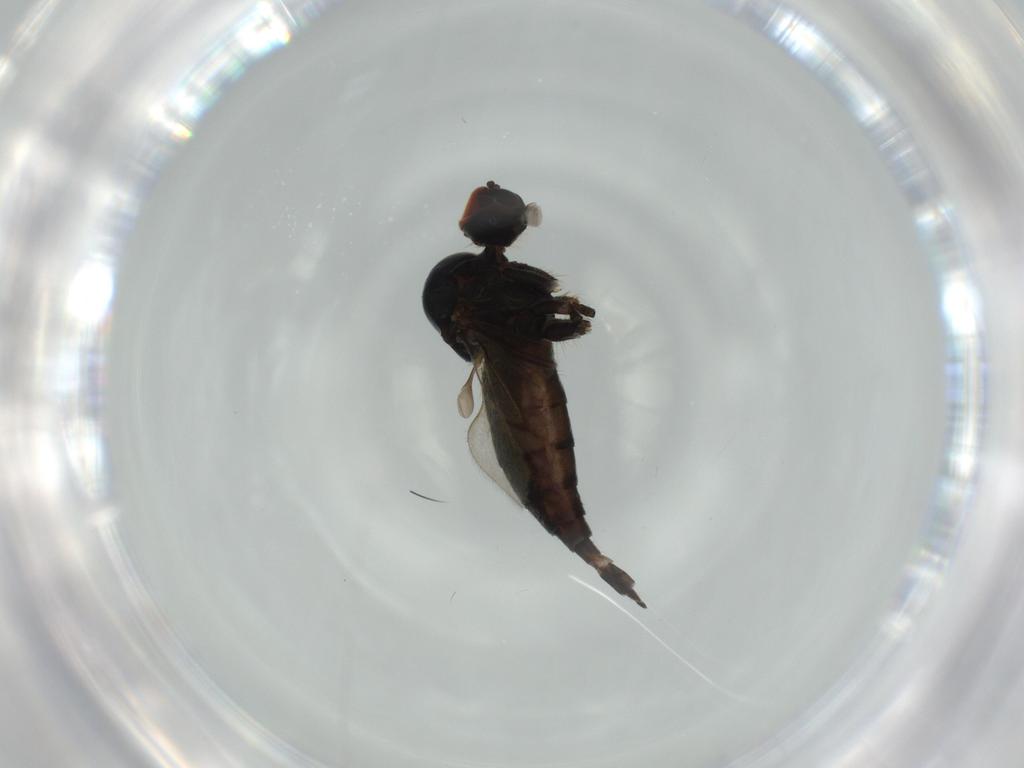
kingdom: Animalia
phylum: Arthropoda
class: Insecta
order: Diptera
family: Hybotidae
